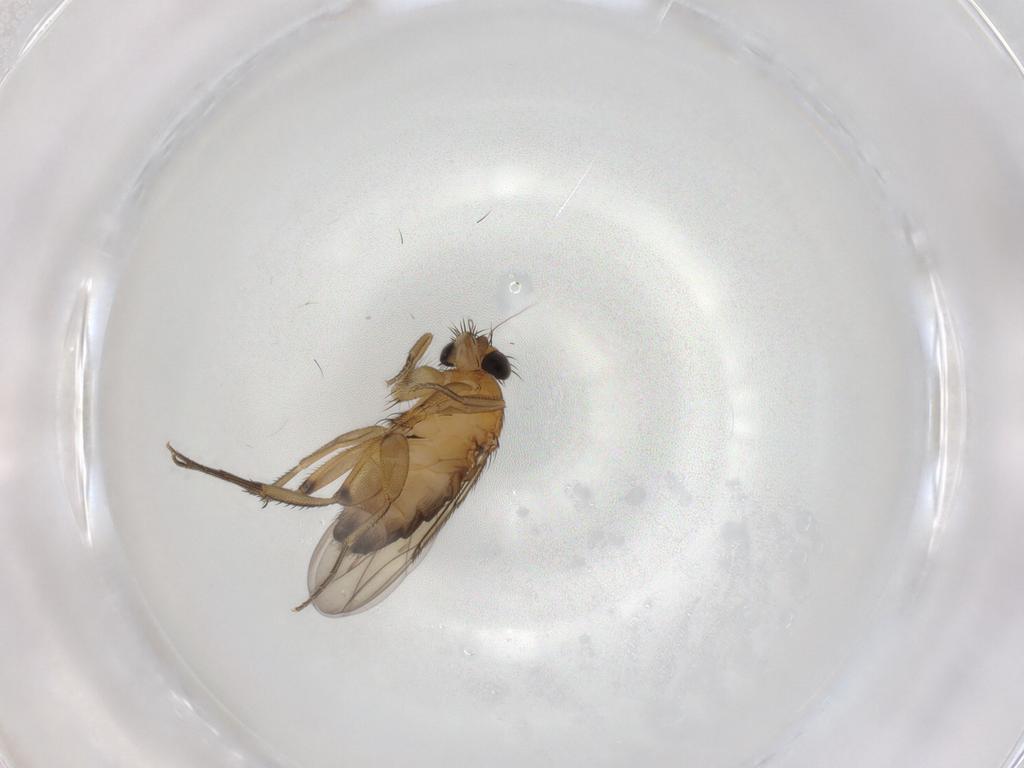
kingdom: Animalia
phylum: Arthropoda
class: Insecta
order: Diptera
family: Phoridae
